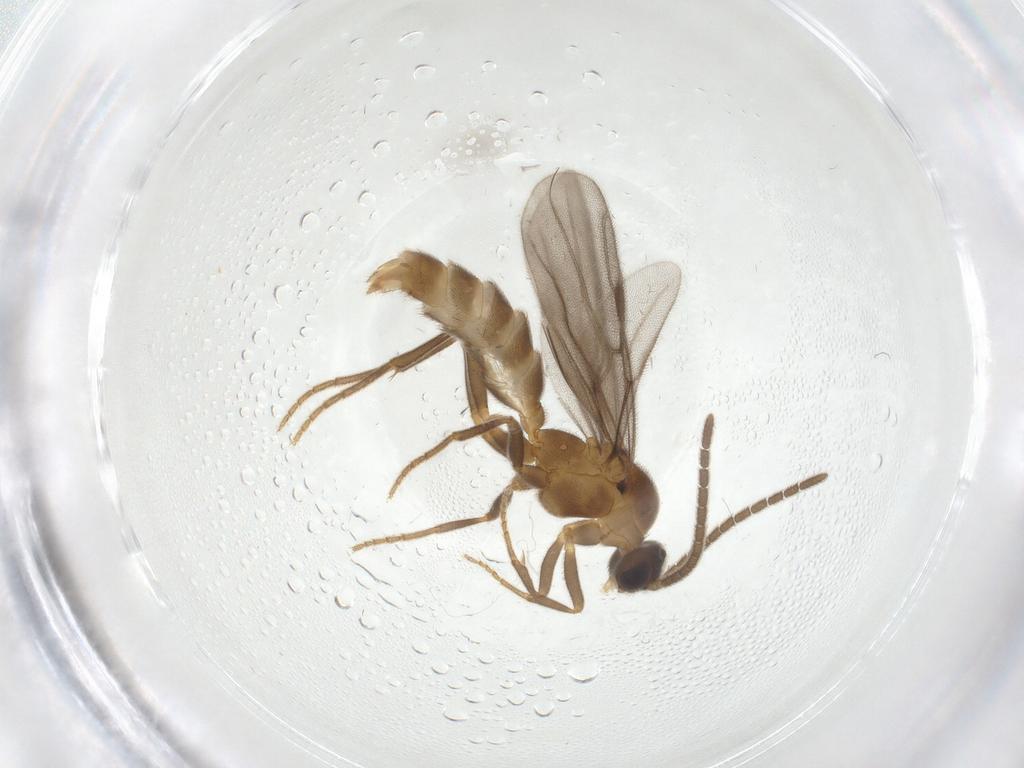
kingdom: Animalia
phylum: Arthropoda
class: Insecta
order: Hymenoptera
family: Formicidae
